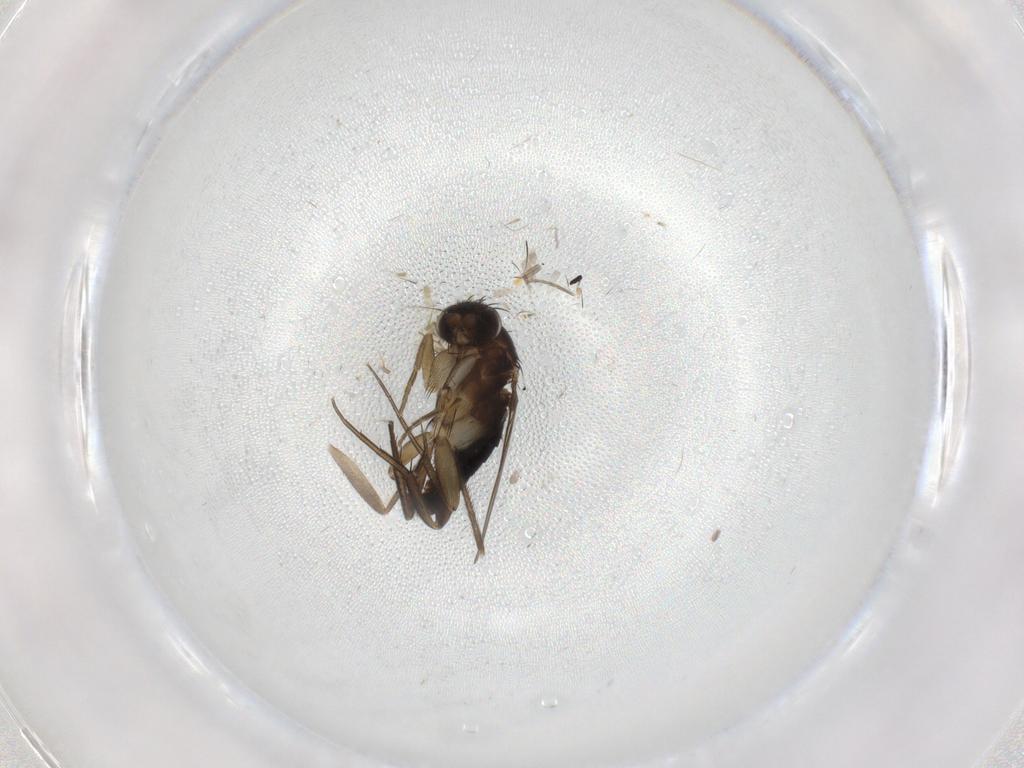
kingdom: Animalia
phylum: Arthropoda
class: Insecta
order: Diptera
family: Phoridae
